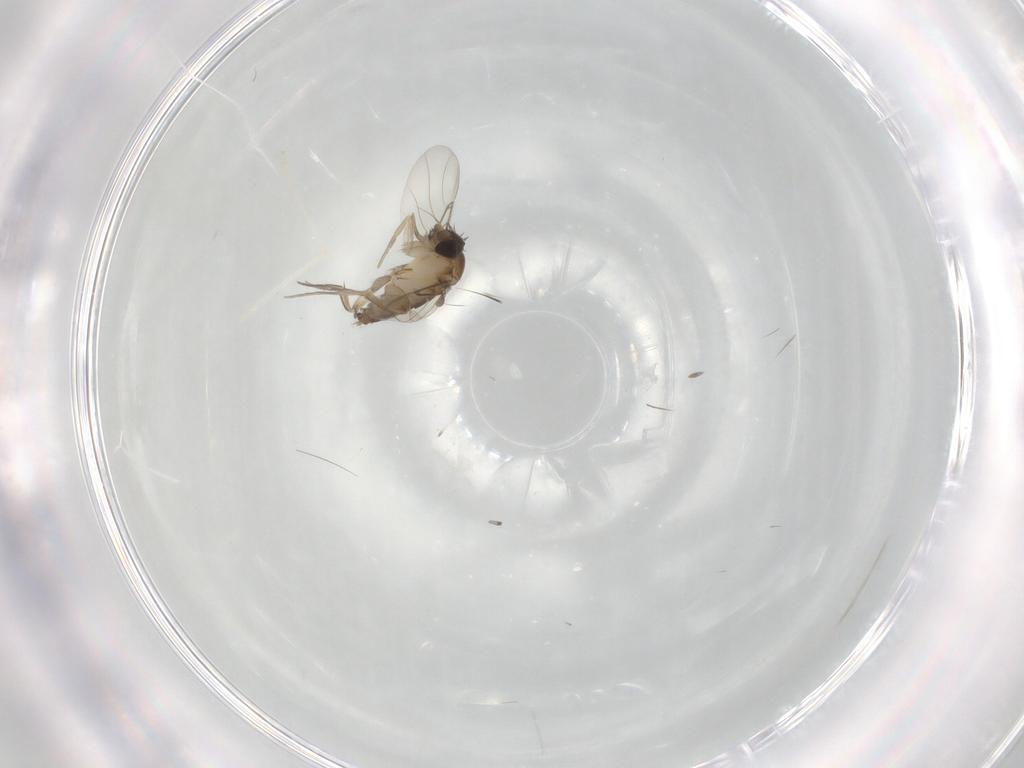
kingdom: Animalia
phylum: Arthropoda
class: Insecta
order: Diptera
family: Phoridae
